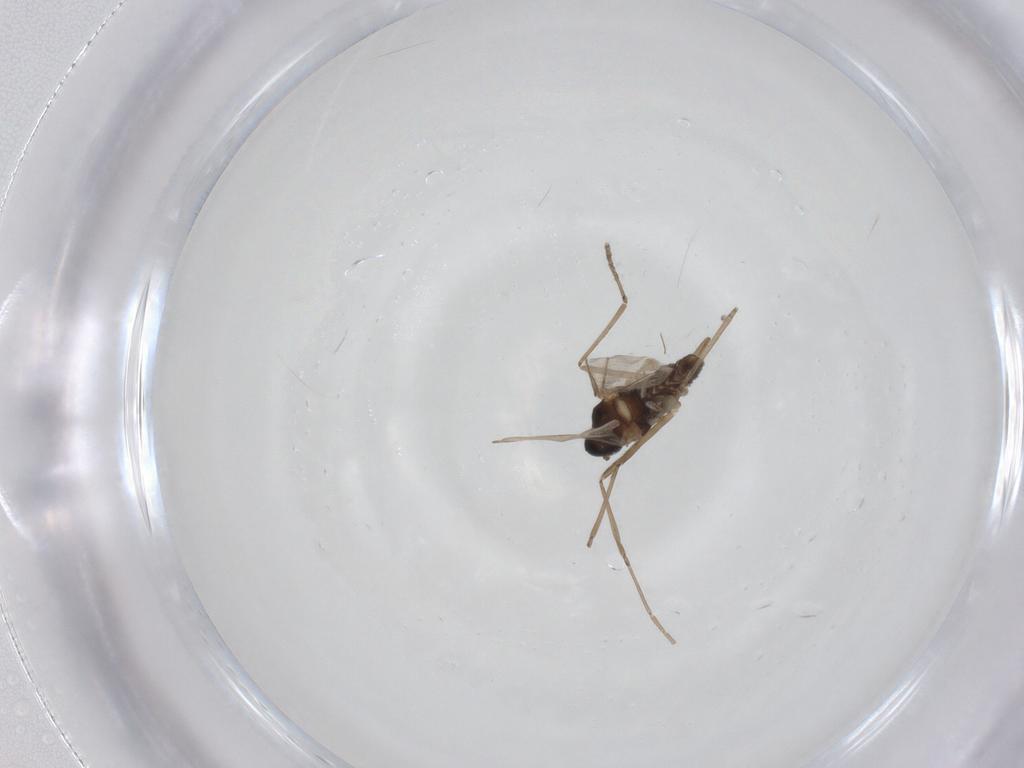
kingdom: Animalia
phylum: Arthropoda
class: Insecta
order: Diptera
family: Cecidomyiidae
